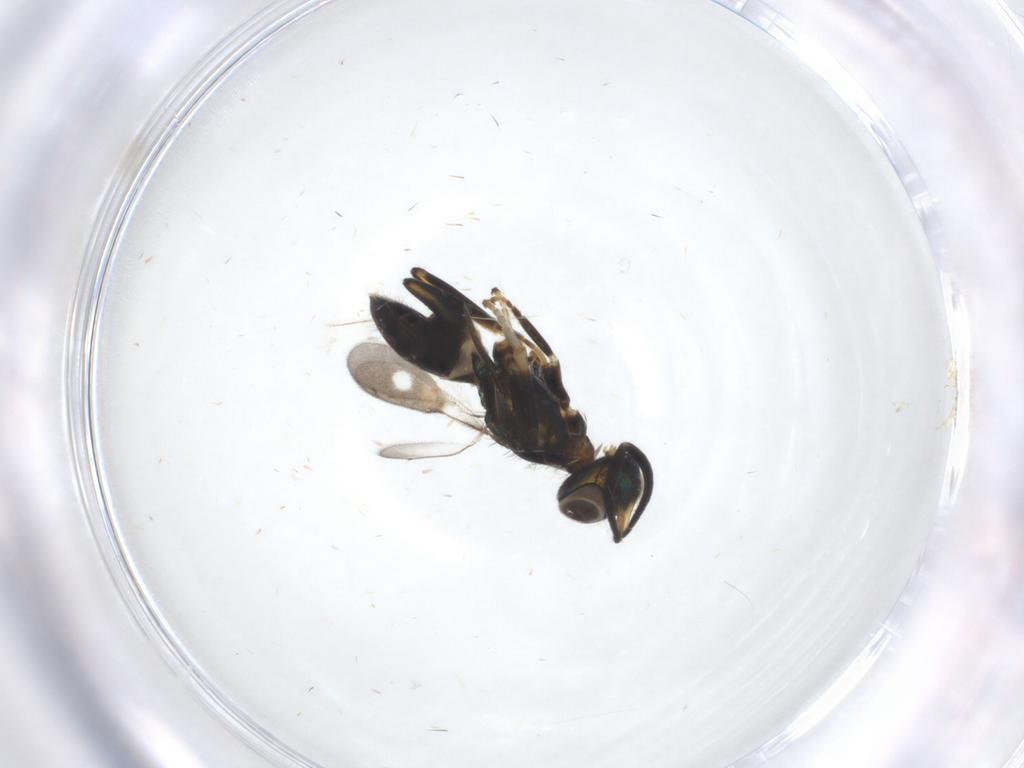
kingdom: Animalia
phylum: Arthropoda
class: Insecta
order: Hymenoptera
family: Eupelmidae
